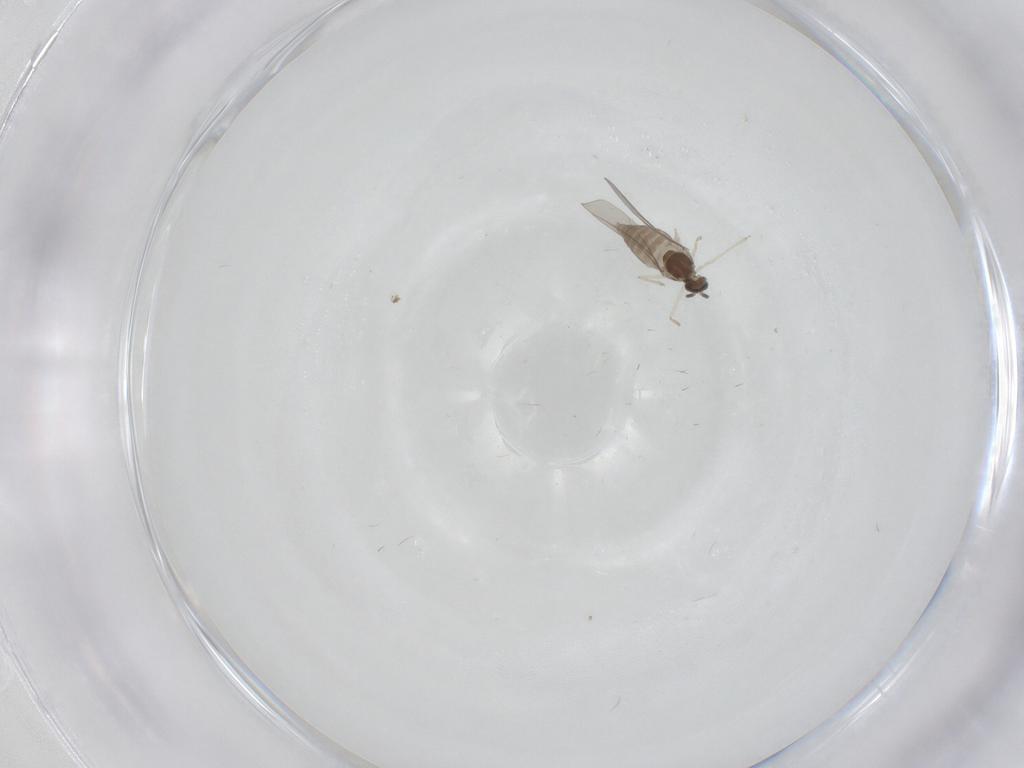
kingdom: Animalia
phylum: Arthropoda
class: Insecta
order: Diptera
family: Cecidomyiidae
